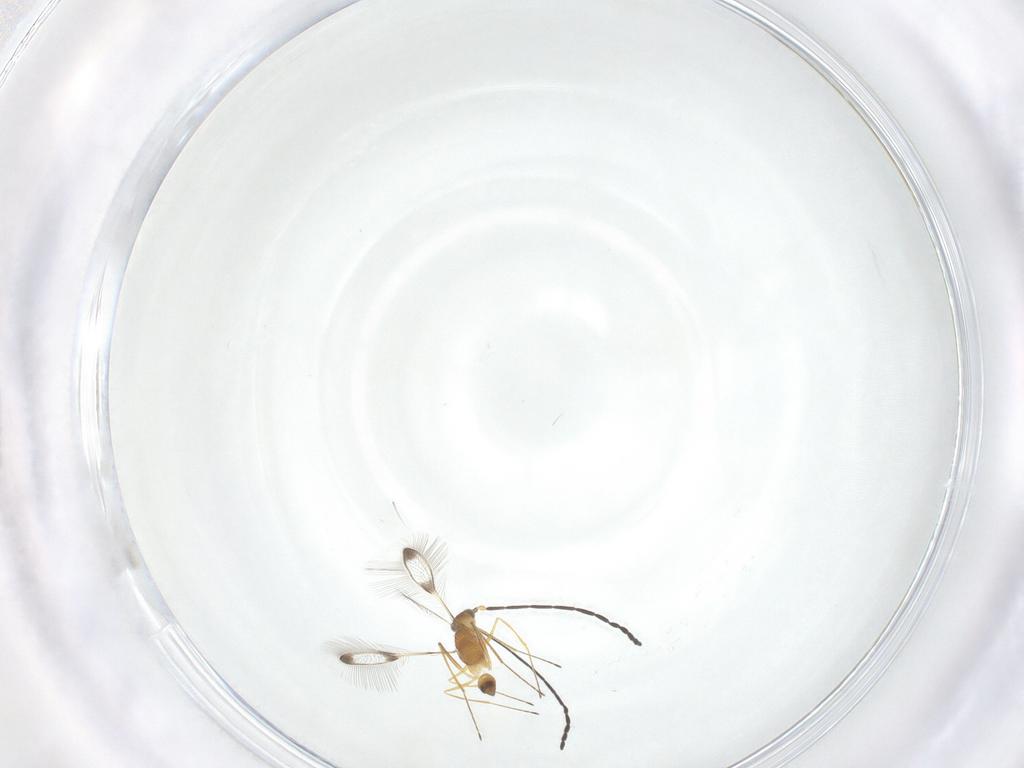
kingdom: Animalia
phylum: Arthropoda
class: Insecta
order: Hymenoptera
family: Mymaridae
